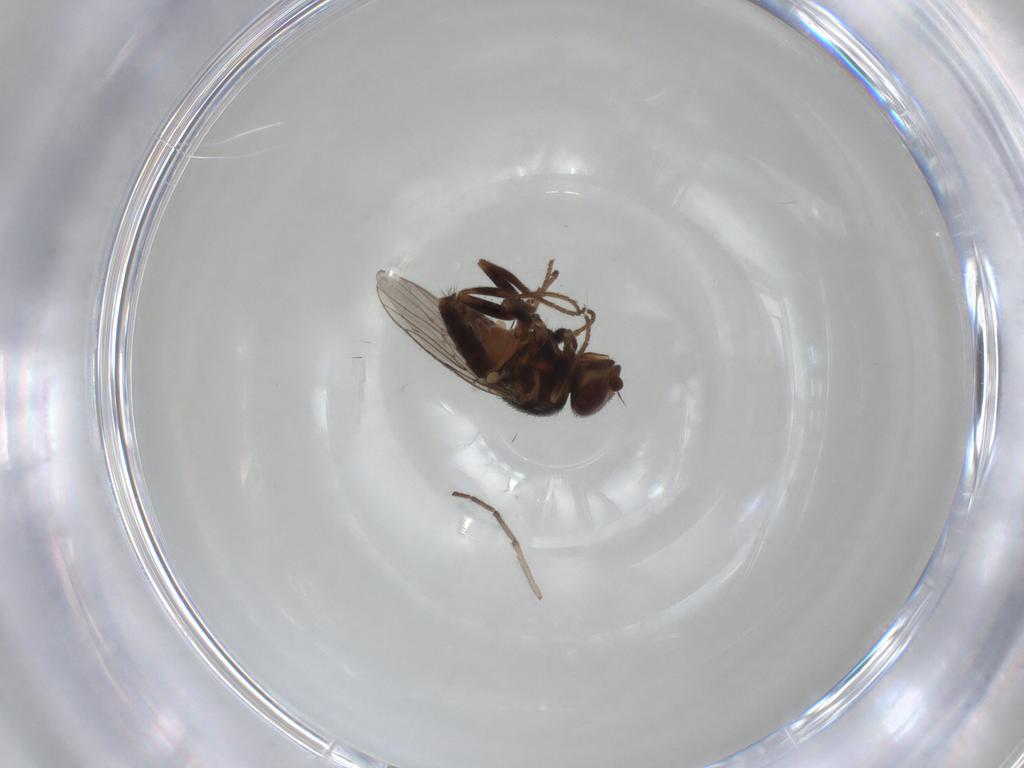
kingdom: Animalia
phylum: Arthropoda
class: Insecta
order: Diptera
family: Chloropidae
